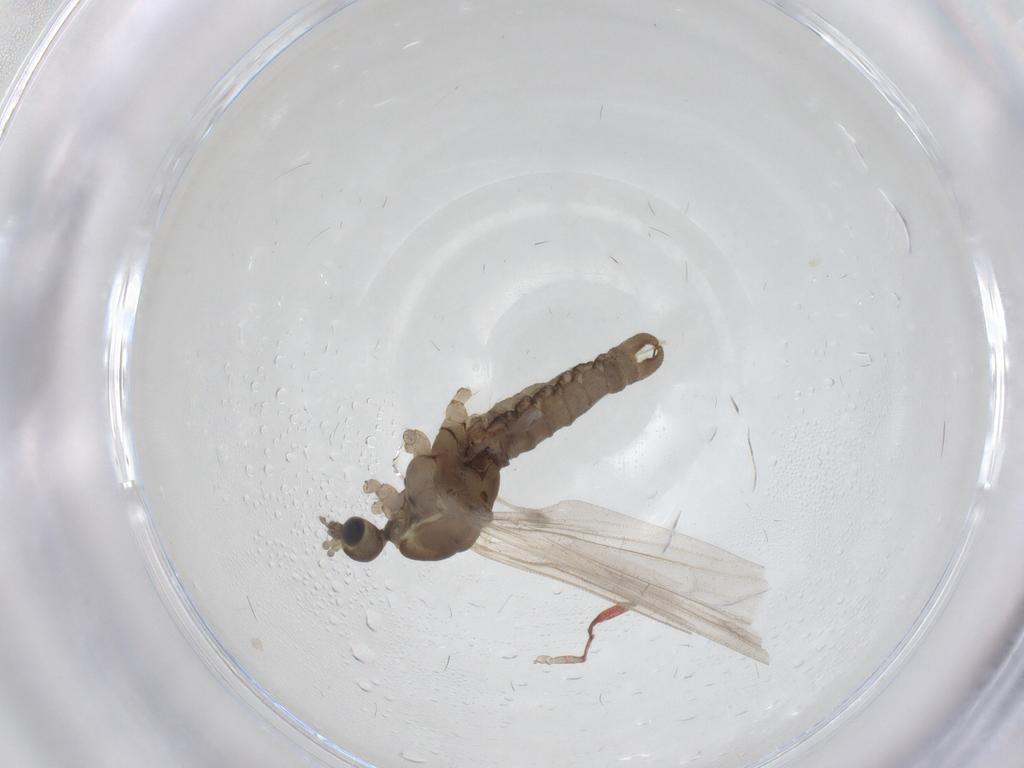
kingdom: Animalia
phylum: Arthropoda
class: Insecta
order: Diptera
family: Limoniidae
